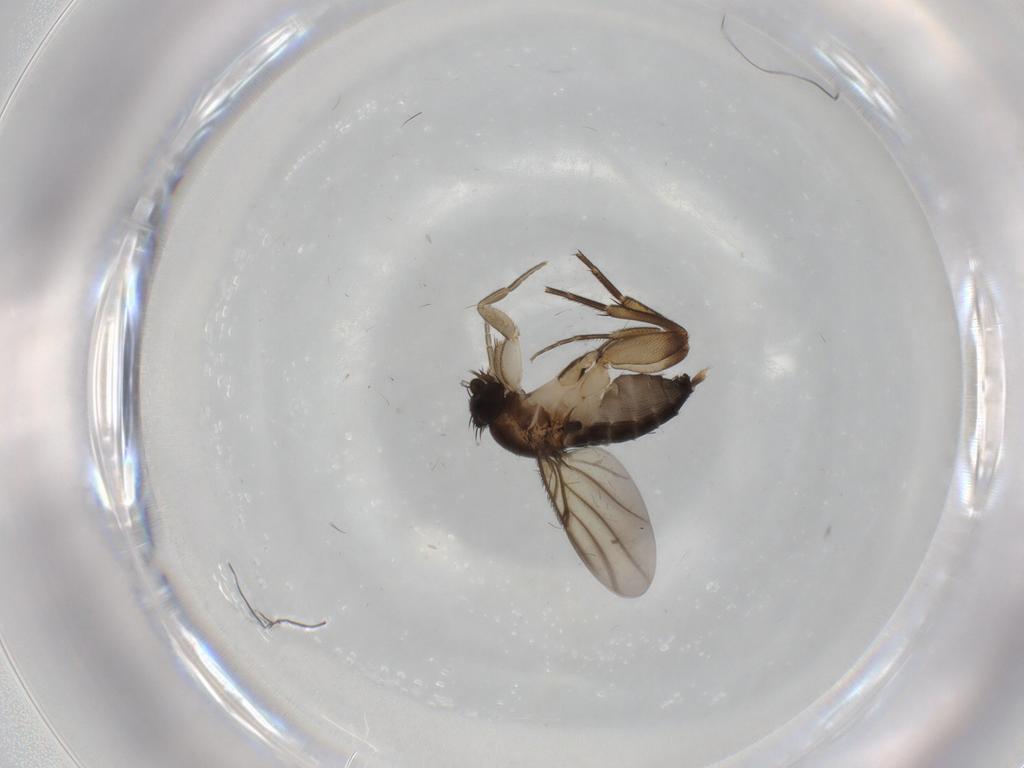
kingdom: Animalia
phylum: Arthropoda
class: Insecta
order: Diptera
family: Phoridae
